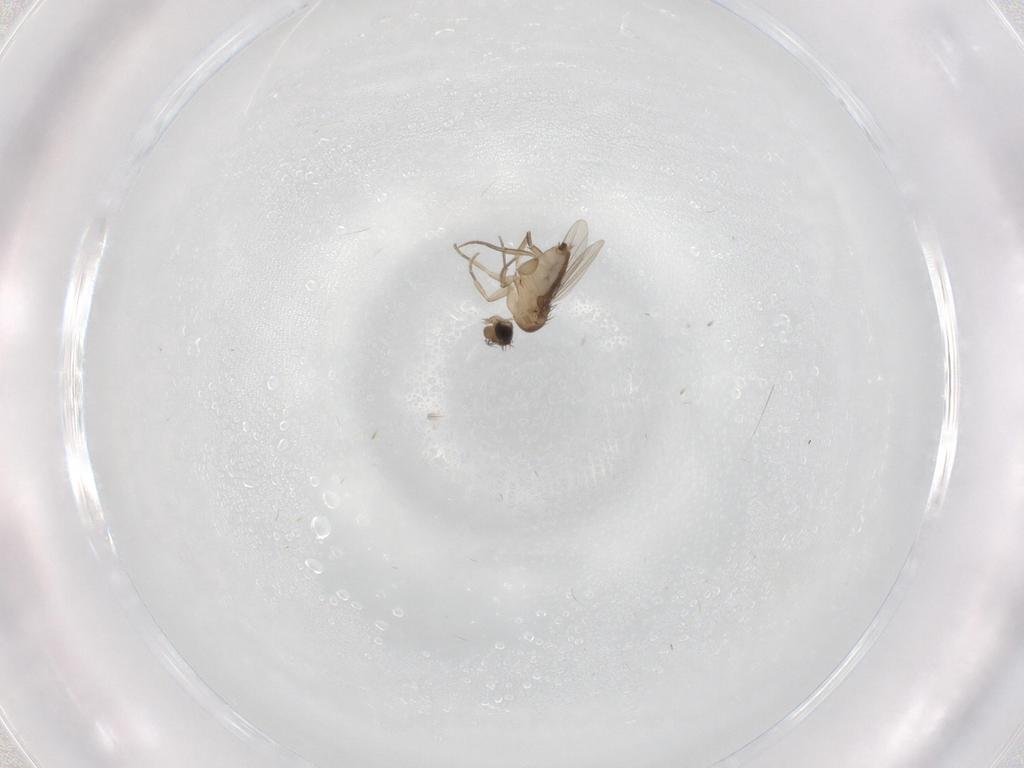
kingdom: Animalia
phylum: Arthropoda
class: Insecta
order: Diptera
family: Phoridae
